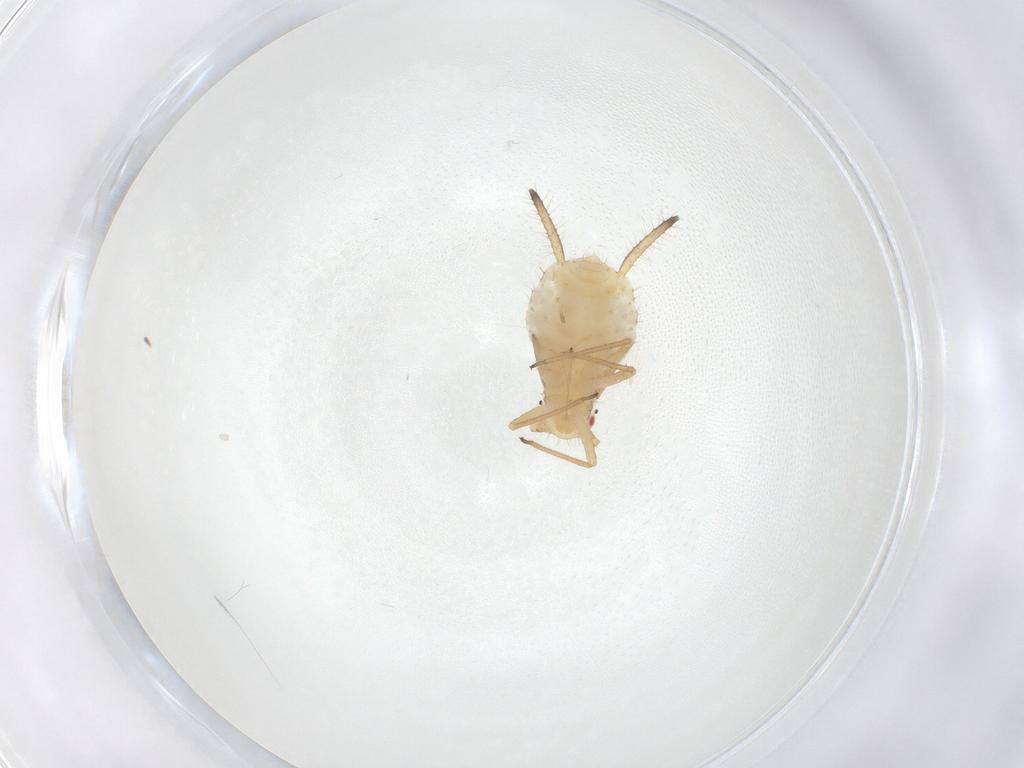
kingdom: Animalia
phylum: Arthropoda
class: Insecta
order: Hemiptera
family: Aphididae
